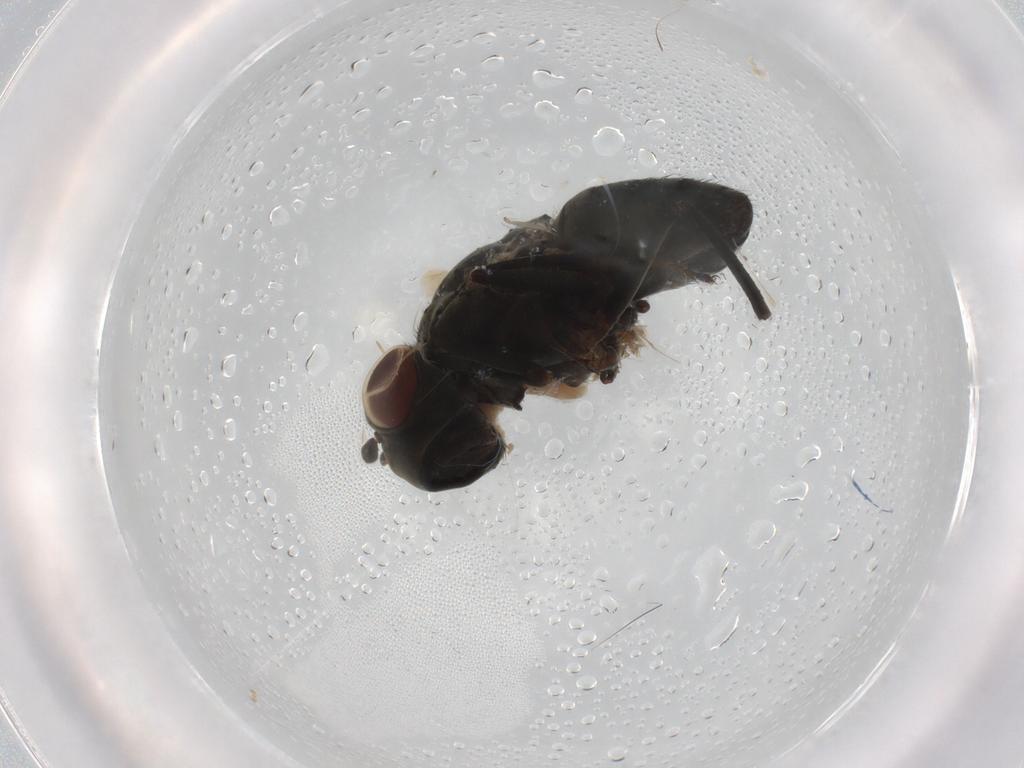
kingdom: Animalia
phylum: Arthropoda
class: Insecta
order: Diptera
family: Ephydridae
